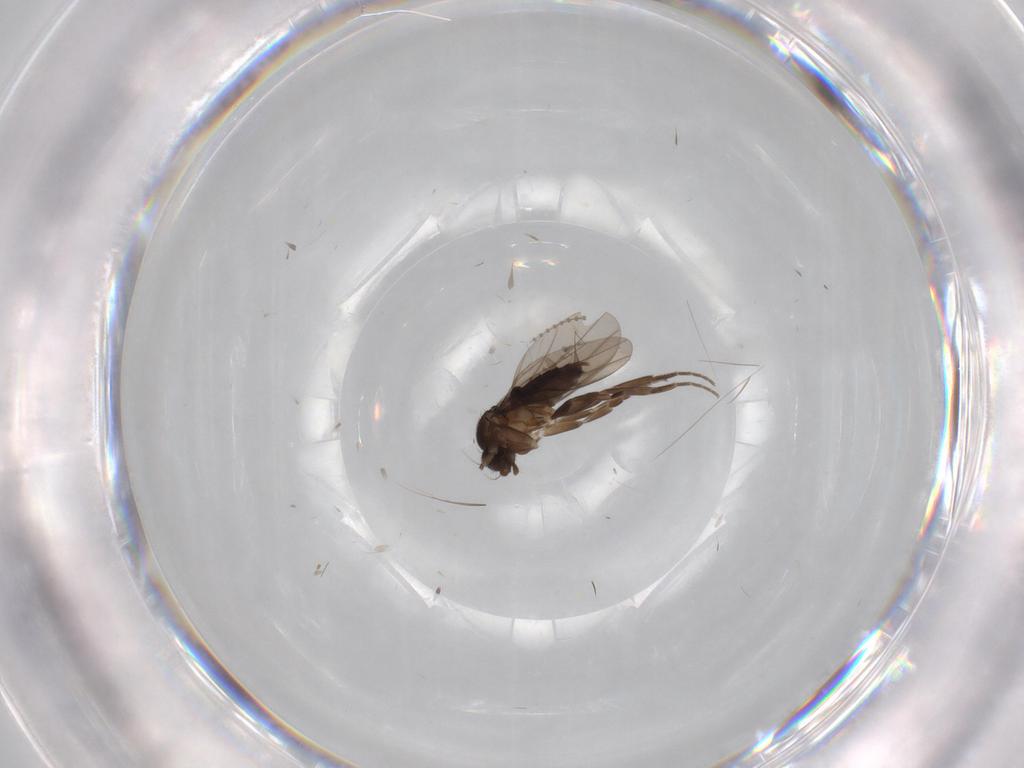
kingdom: Animalia
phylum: Arthropoda
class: Insecta
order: Diptera
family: Phoridae
